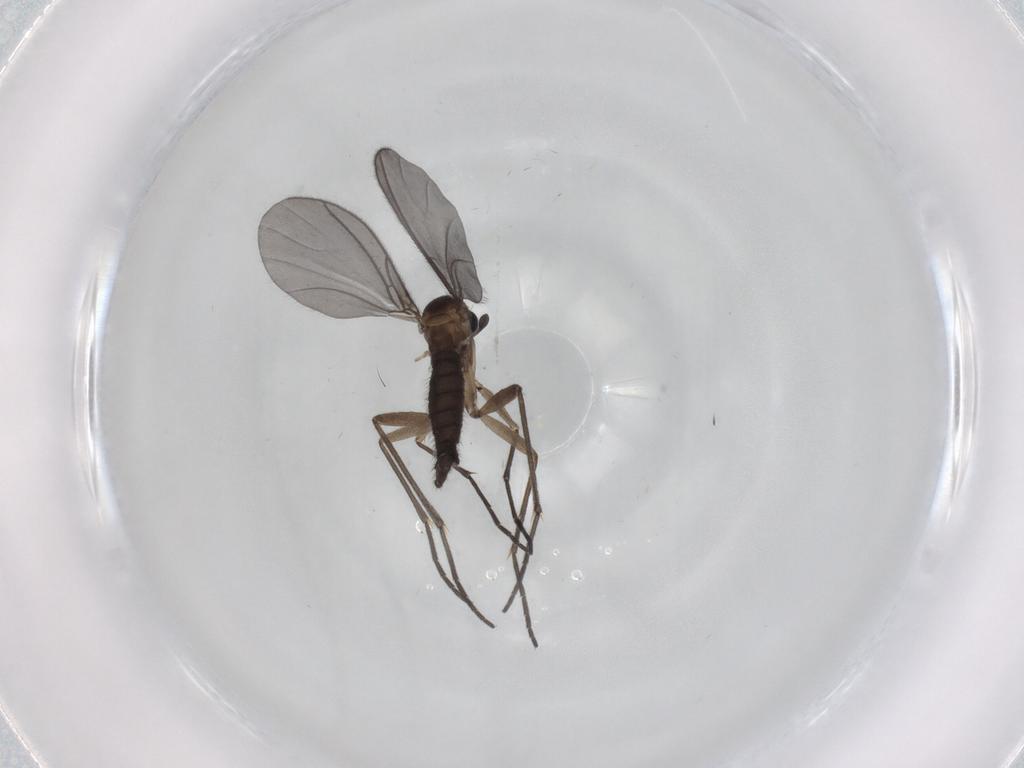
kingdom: Animalia
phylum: Arthropoda
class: Insecta
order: Diptera
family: Sciaridae
